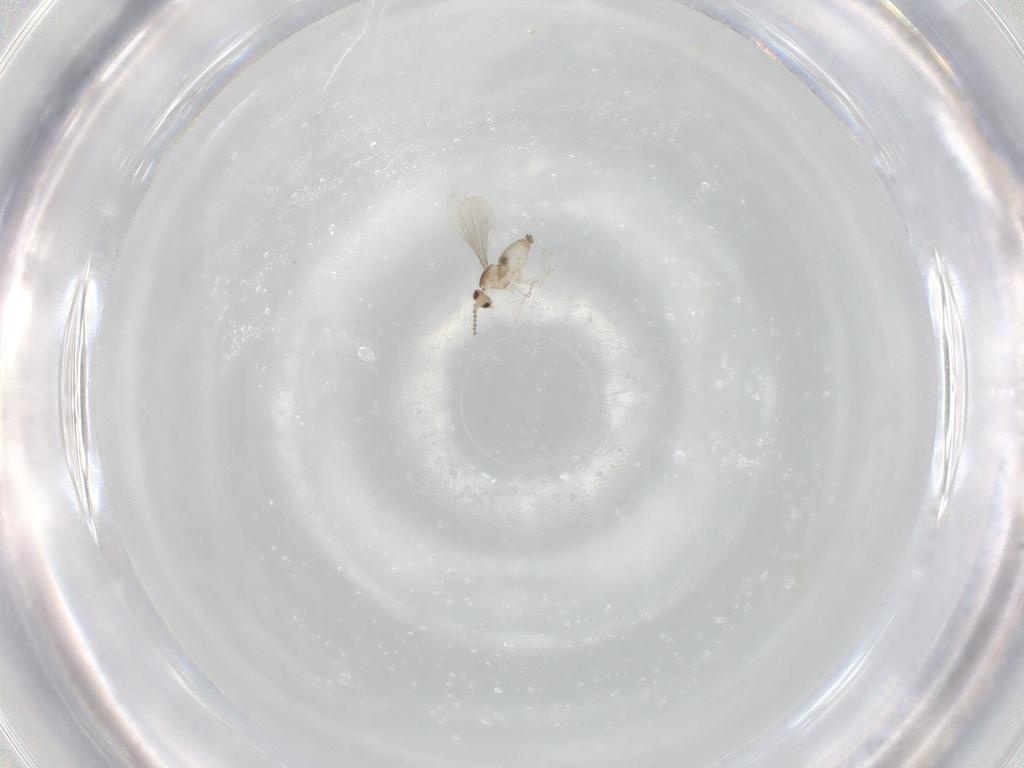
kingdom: Animalia
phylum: Arthropoda
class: Insecta
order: Diptera
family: Cecidomyiidae
